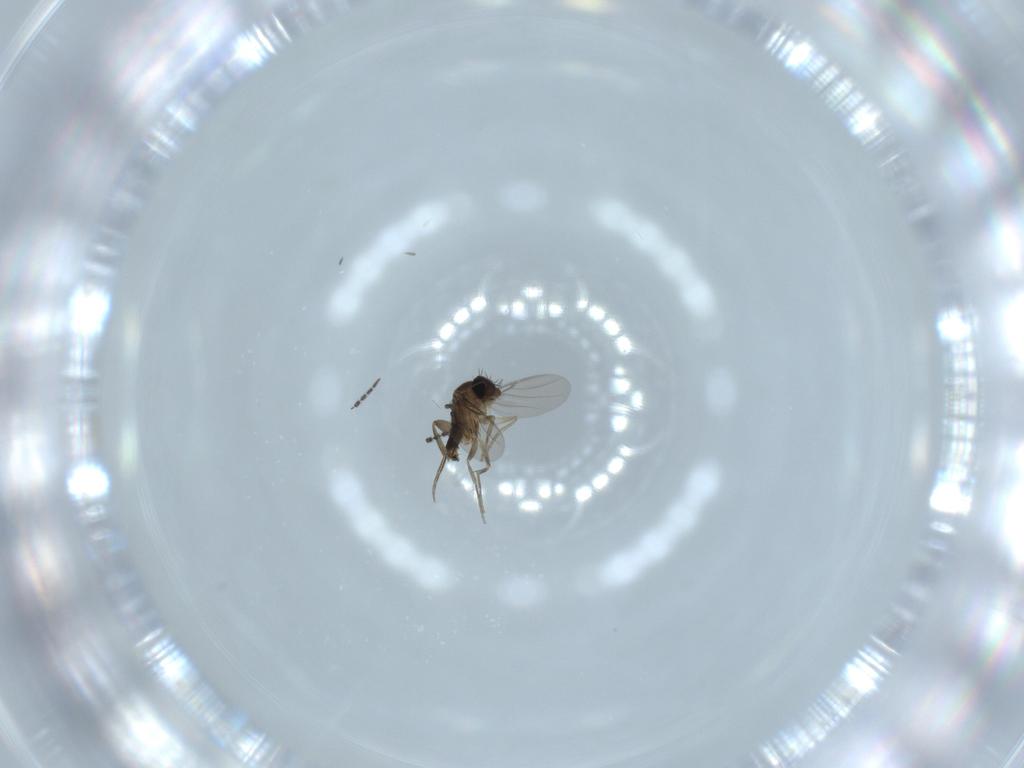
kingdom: Animalia
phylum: Arthropoda
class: Insecta
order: Diptera
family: Phoridae
